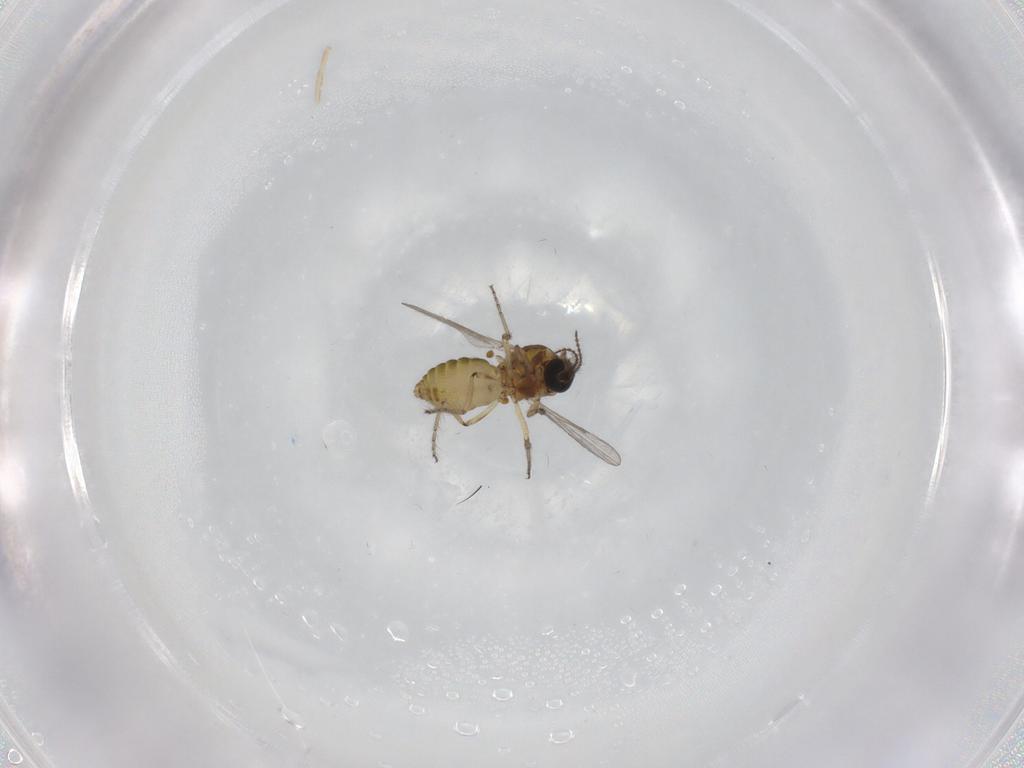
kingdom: Animalia
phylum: Arthropoda
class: Insecta
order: Diptera
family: Ceratopogonidae
